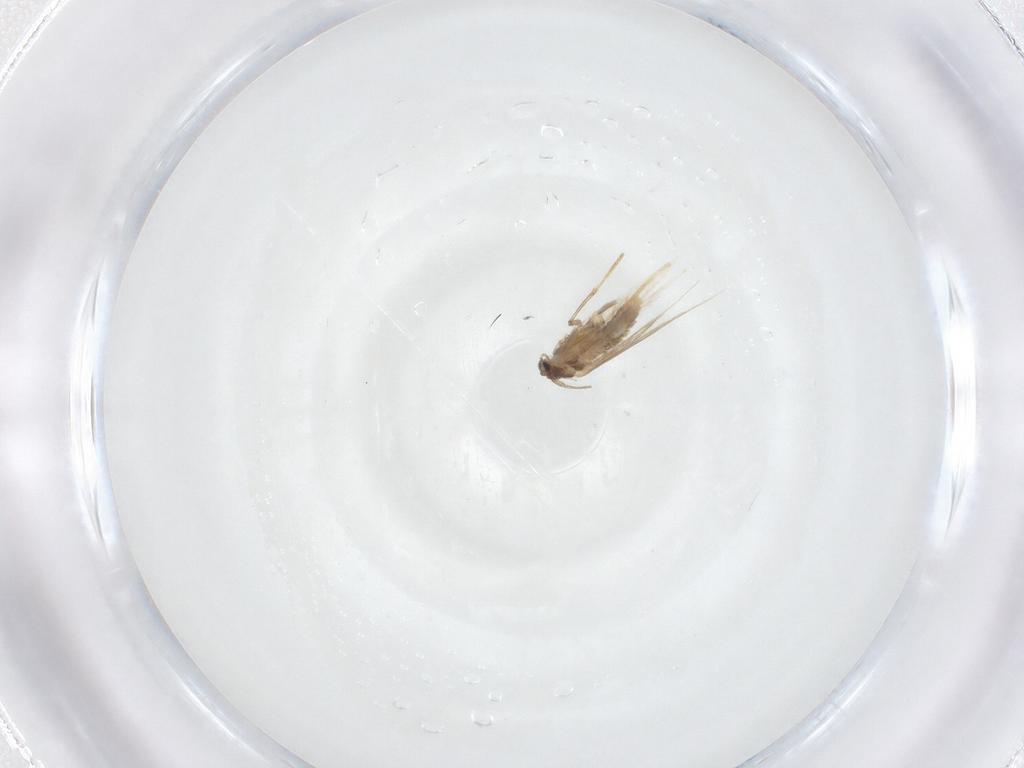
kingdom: Animalia
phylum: Arthropoda
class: Insecta
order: Lepidoptera
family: Nepticulidae
